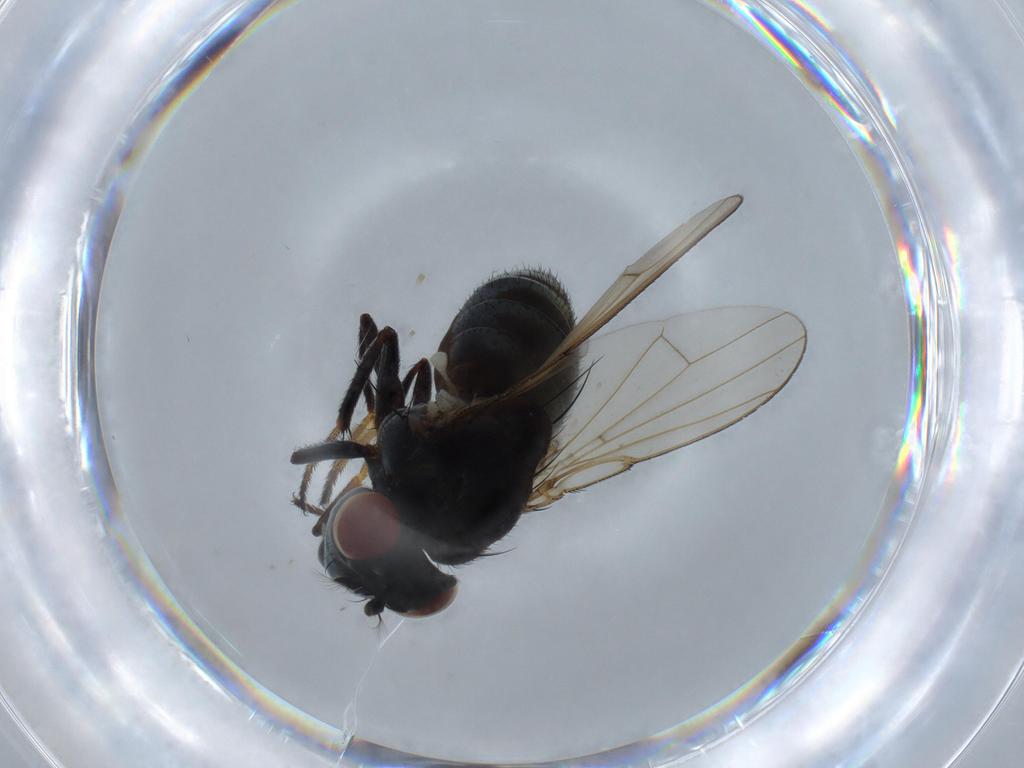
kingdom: Animalia
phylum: Arthropoda
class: Insecta
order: Diptera
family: Ephydridae
